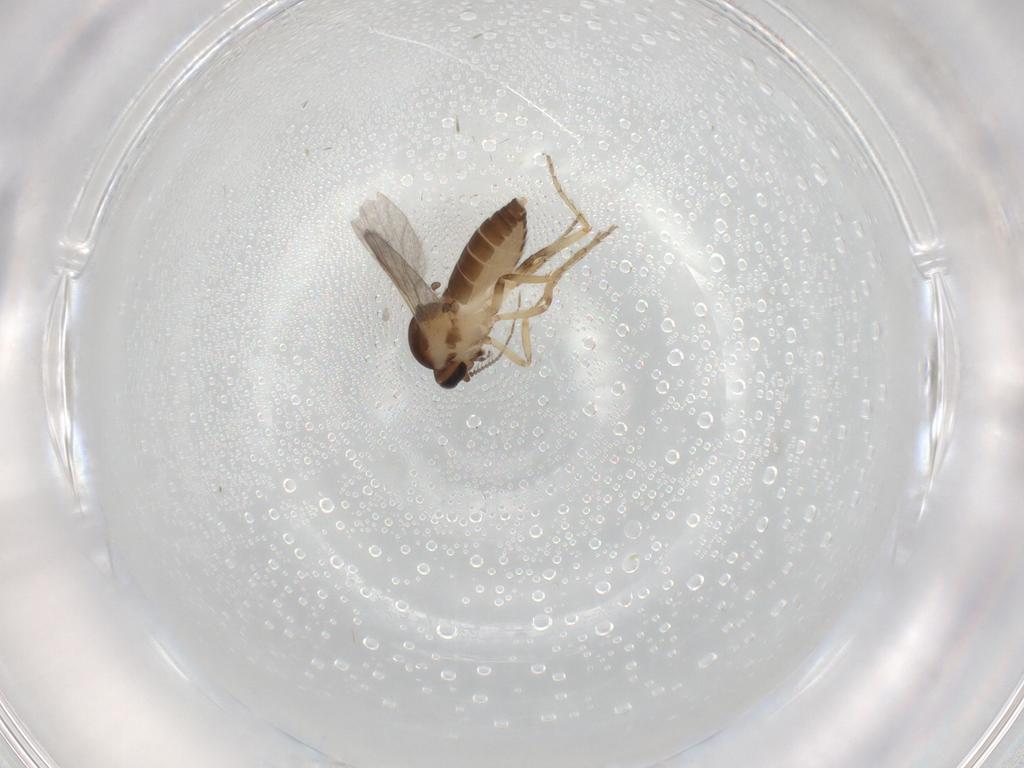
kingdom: Animalia
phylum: Arthropoda
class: Insecta
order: Diptera
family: Ceratopogonidae
